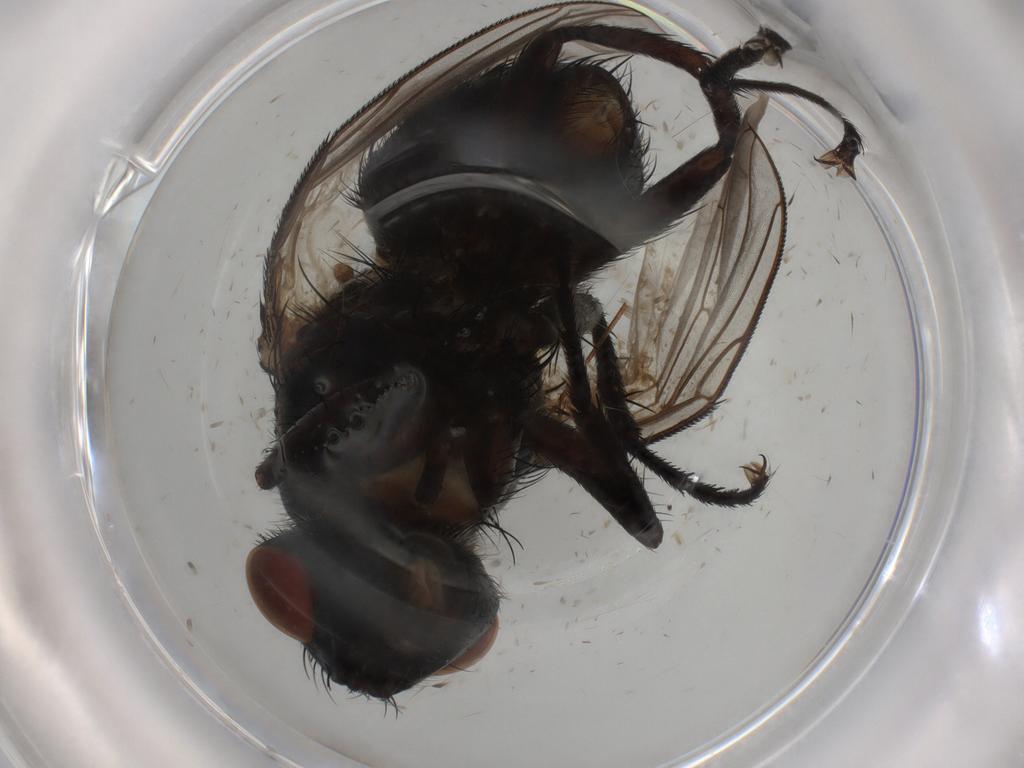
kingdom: Animalia
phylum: Arthropoda
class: Insecta
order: Diptera
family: Sarcophagidae
